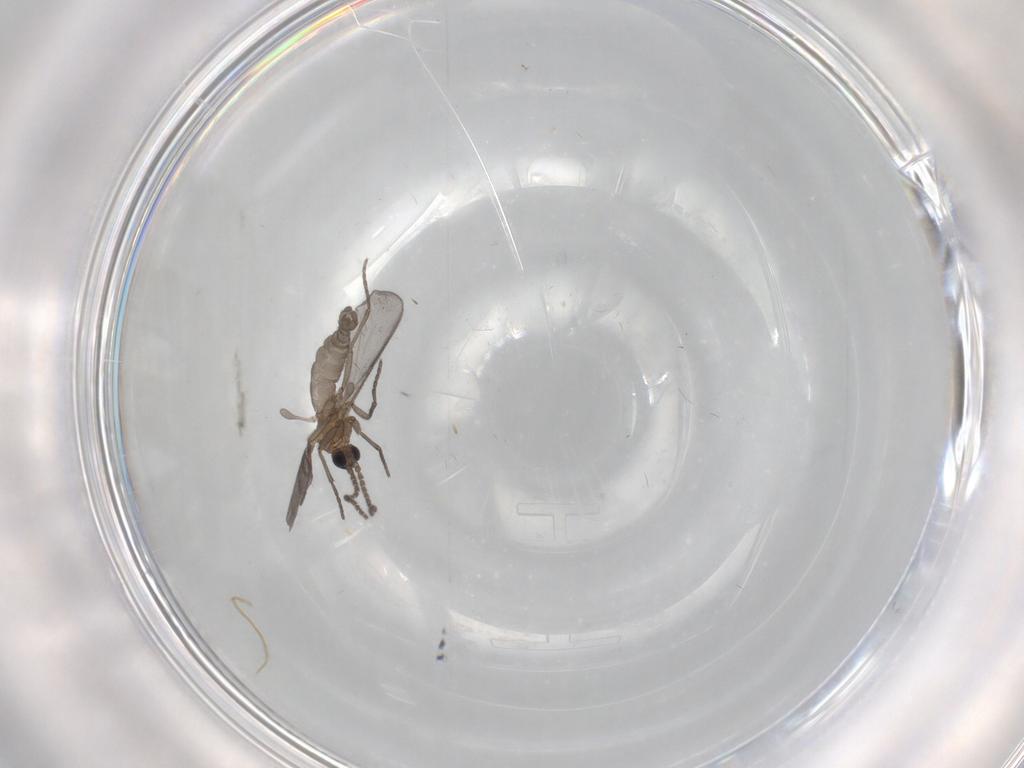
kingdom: Animalia
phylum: Arthropoda
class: Insecta
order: Diptera
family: Sciaridae
